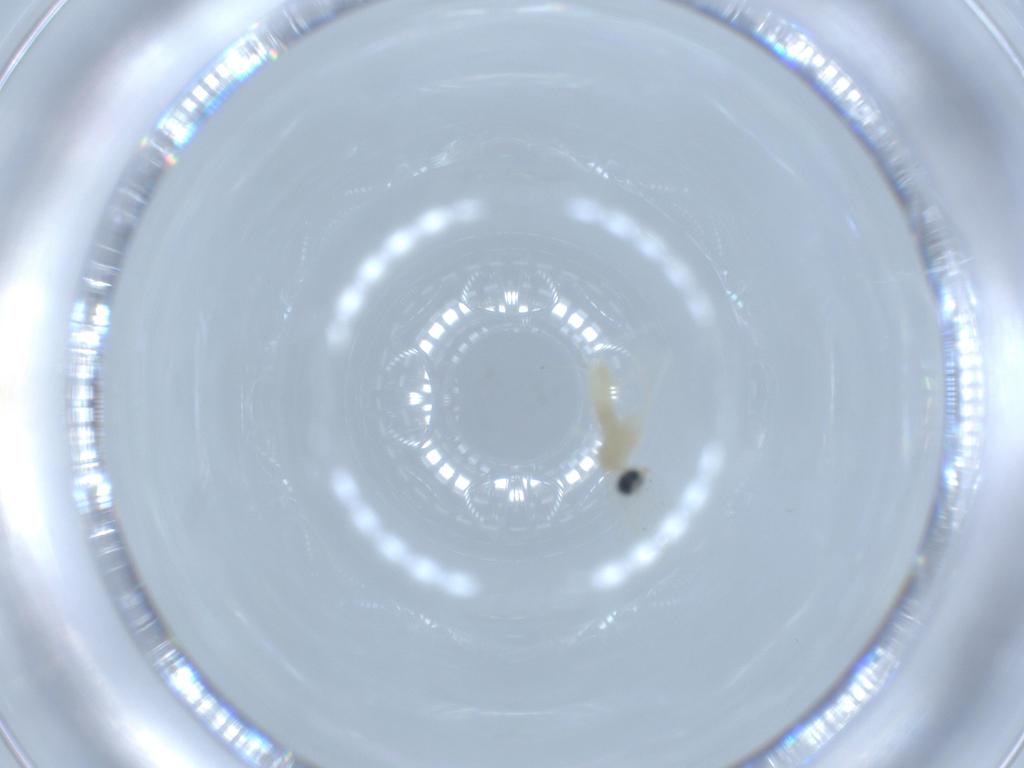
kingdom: Animalia
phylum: Arthropoda
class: Insecta
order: Diptera
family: Cecidomyiidae
